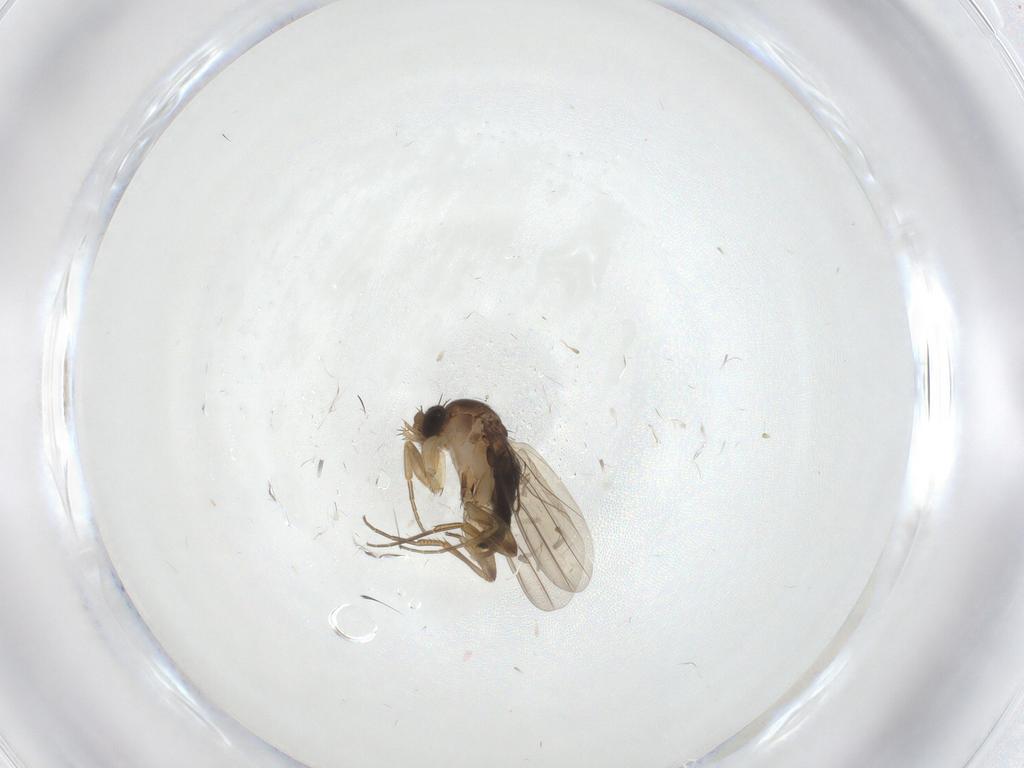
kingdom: Animalia
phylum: Arthropoda
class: Insecta
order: Diptera
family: Phoridae
